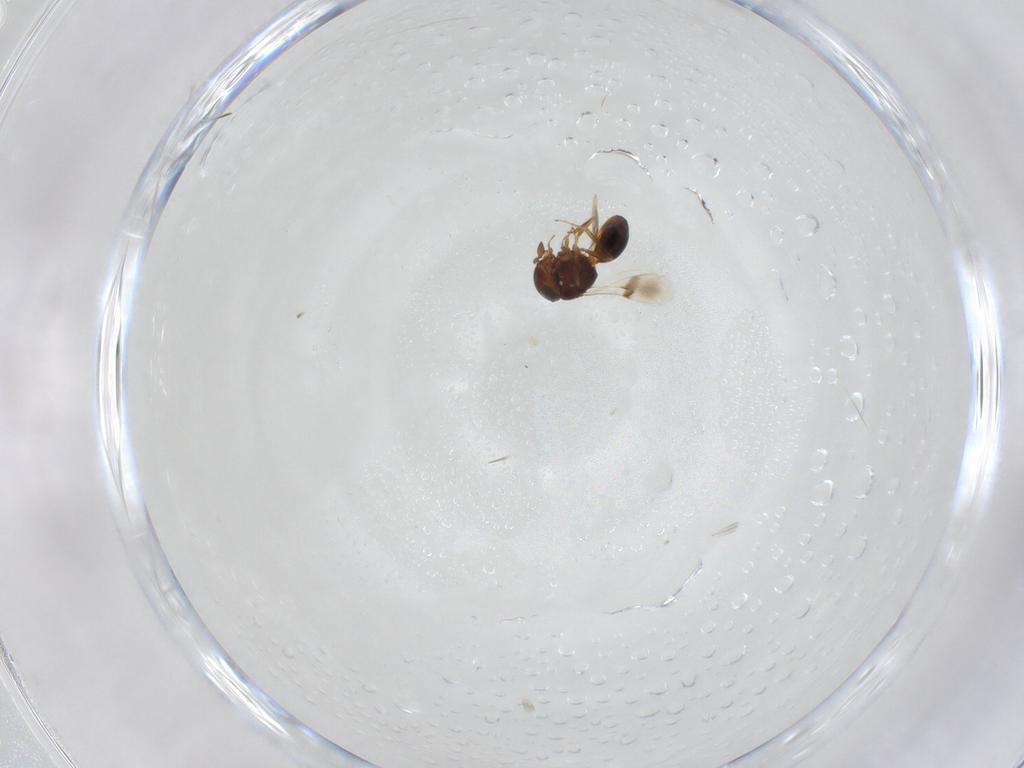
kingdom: Animalia
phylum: Arthropoda
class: Insecta
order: Hymenoptera
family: Scelionidae
